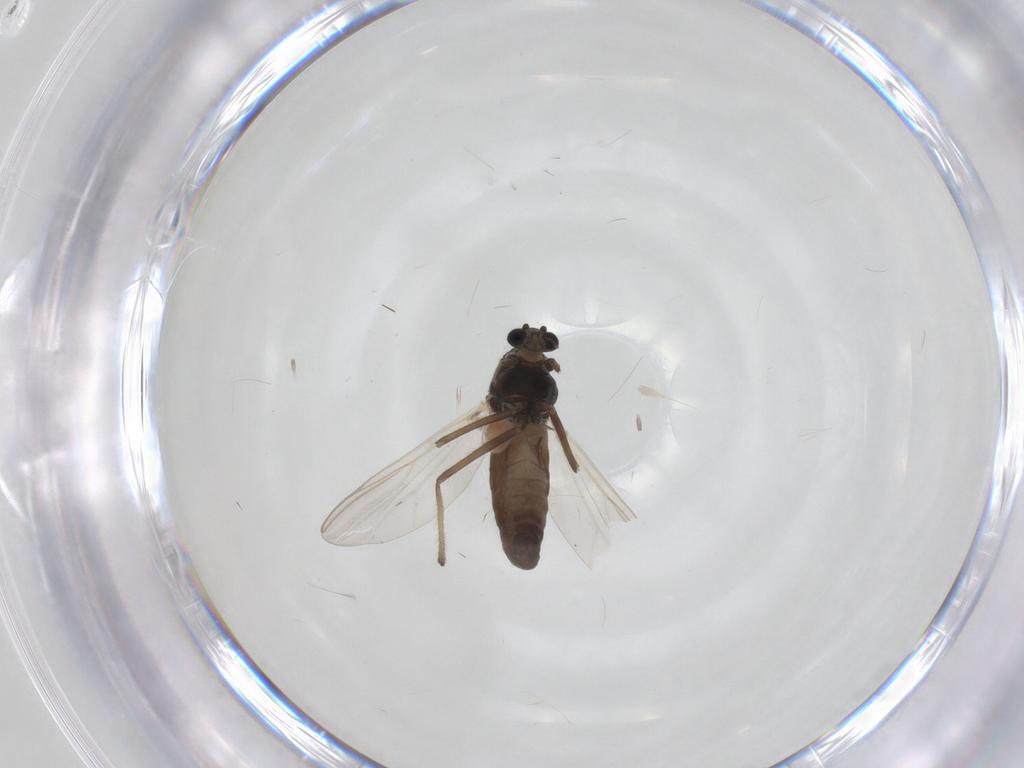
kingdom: Animalia
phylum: Arthropoda
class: Insecta
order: Diptera
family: Chironomidae
